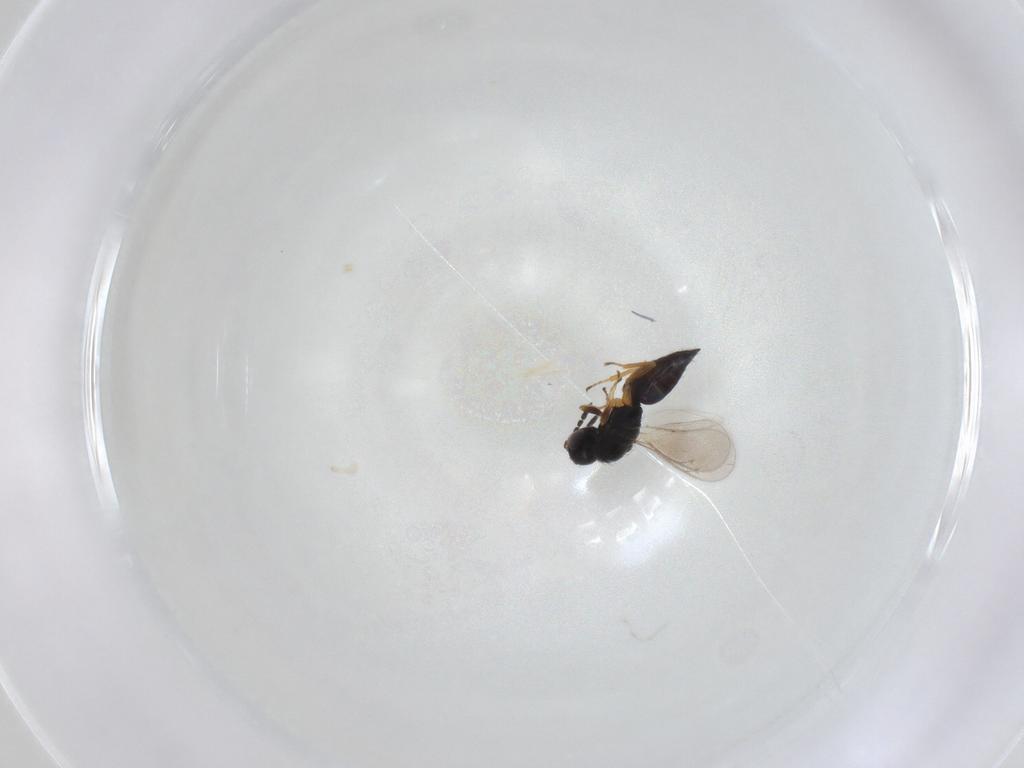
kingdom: Animalia
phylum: Arthropoda
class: Insecta
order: Hymenoptera
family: Eulophidae
